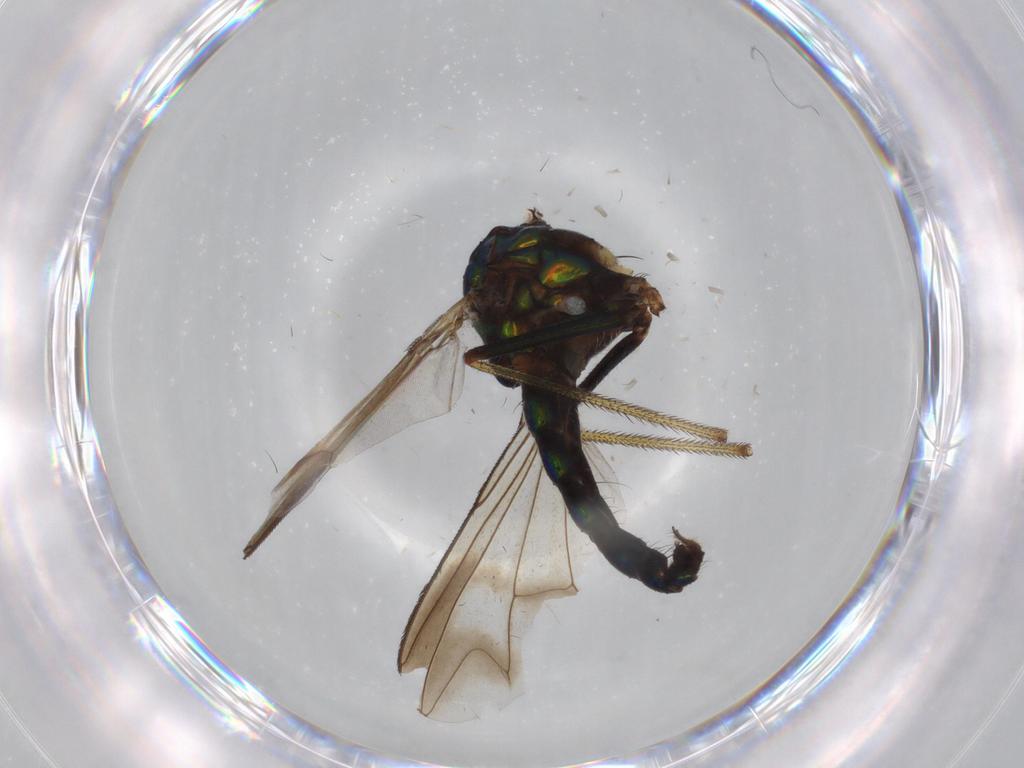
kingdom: Animalia
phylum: Arthropoda
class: Insecta
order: Diptera
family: Dolichopodidae
